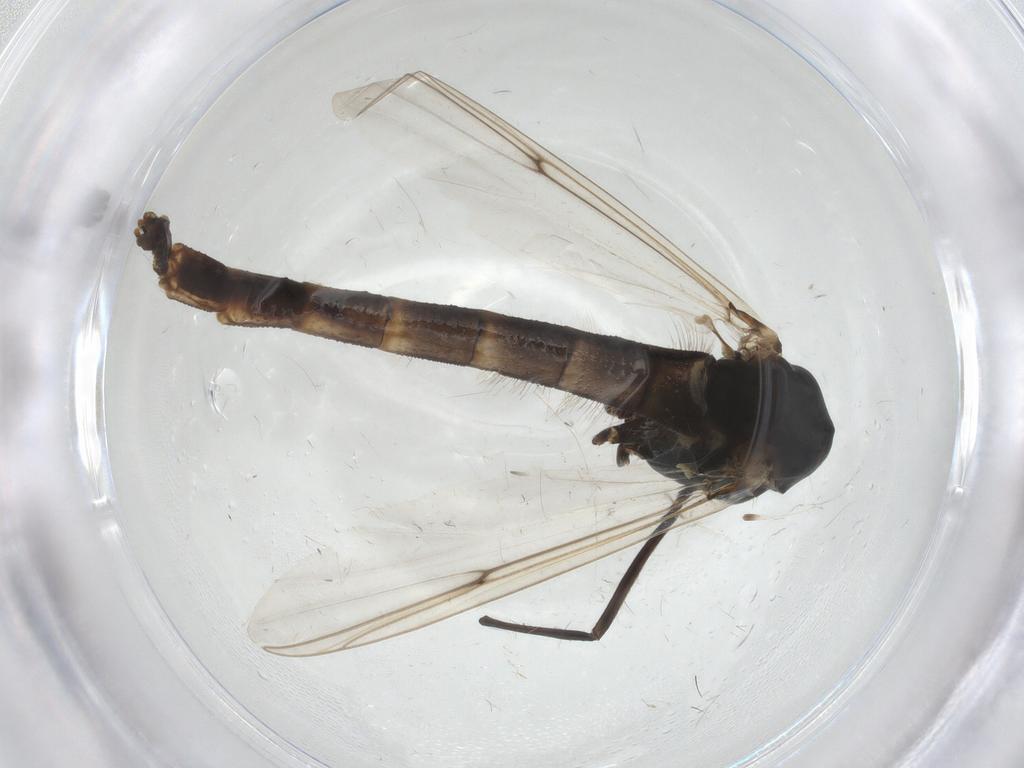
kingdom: Animalia
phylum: Arthropoda
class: Insecta
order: Diptera
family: Chironomidae
